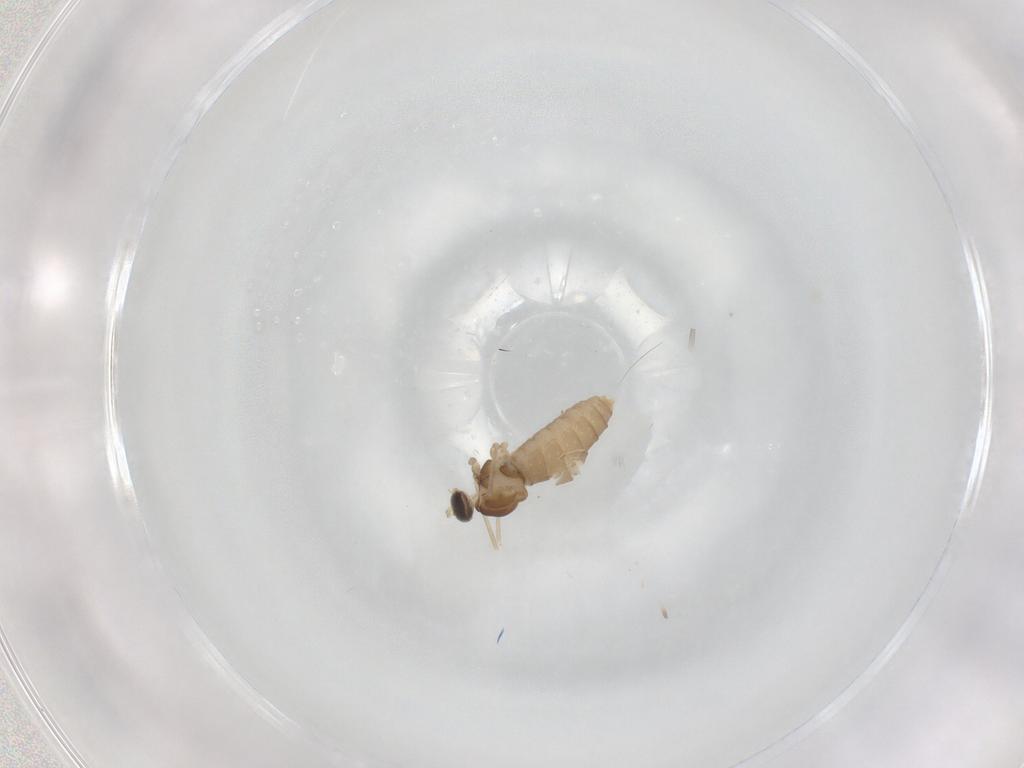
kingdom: Animalia
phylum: Arthropoda
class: Insecta
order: Diptera
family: Cecidomyiidae
